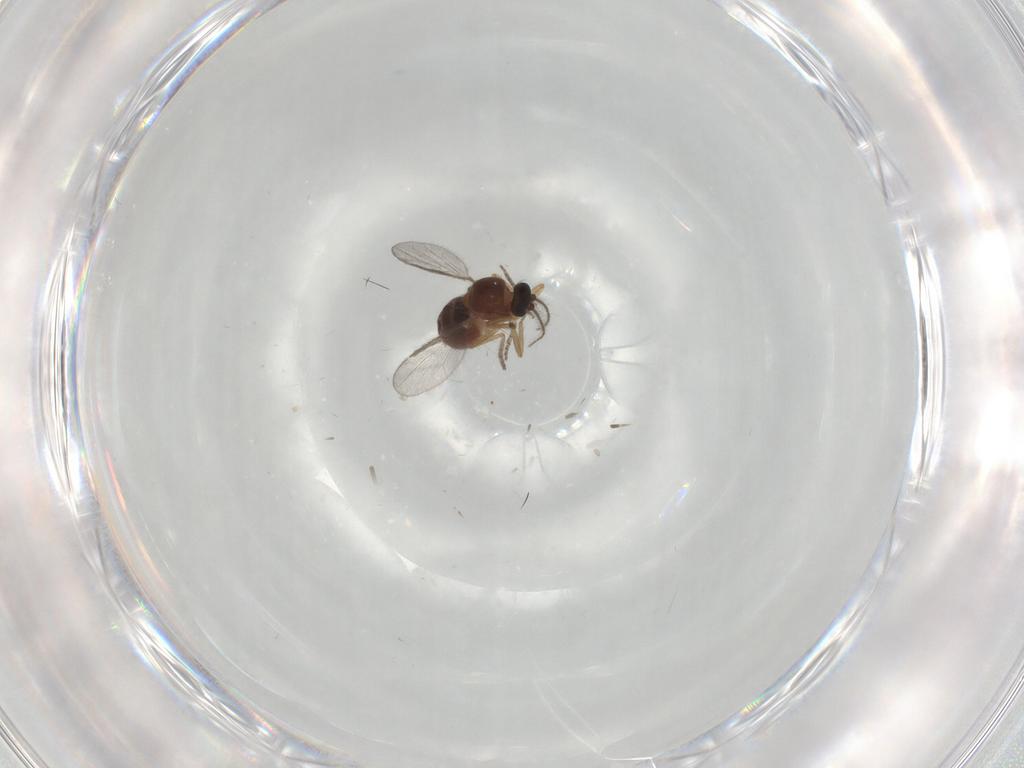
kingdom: Animalia
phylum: Arthropoda
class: Insecta
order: Diptera
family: Ceratopogonidae
